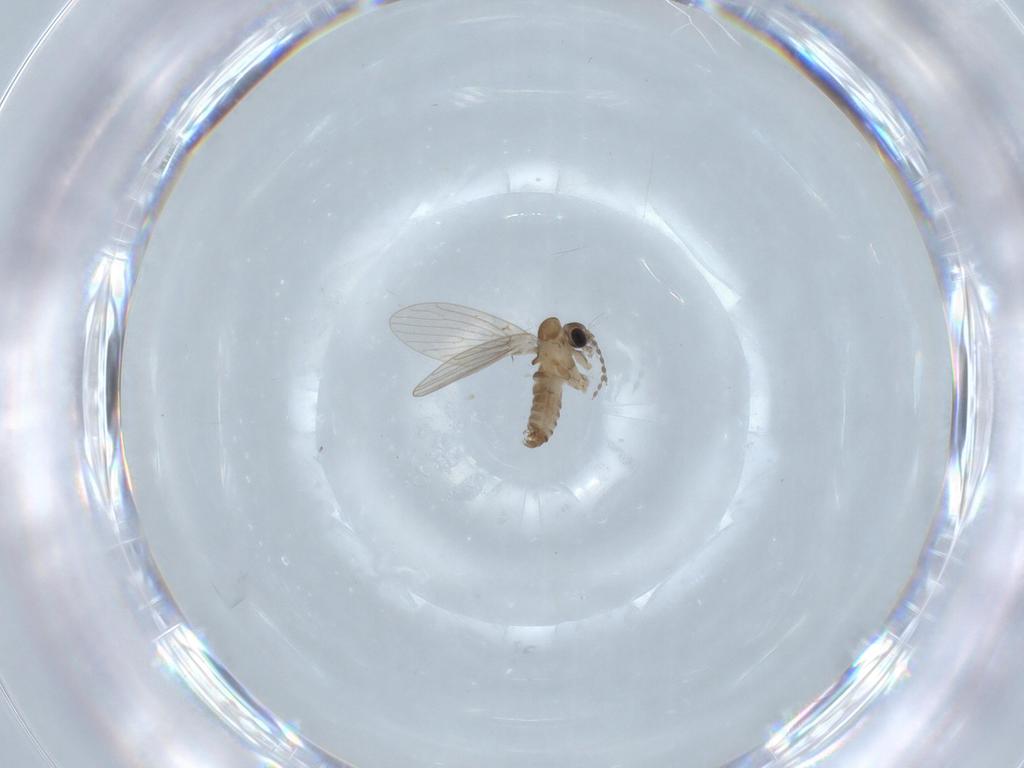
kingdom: Animalia
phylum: Arthropoda
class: Insecta
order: Diptera
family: Psychodidae
